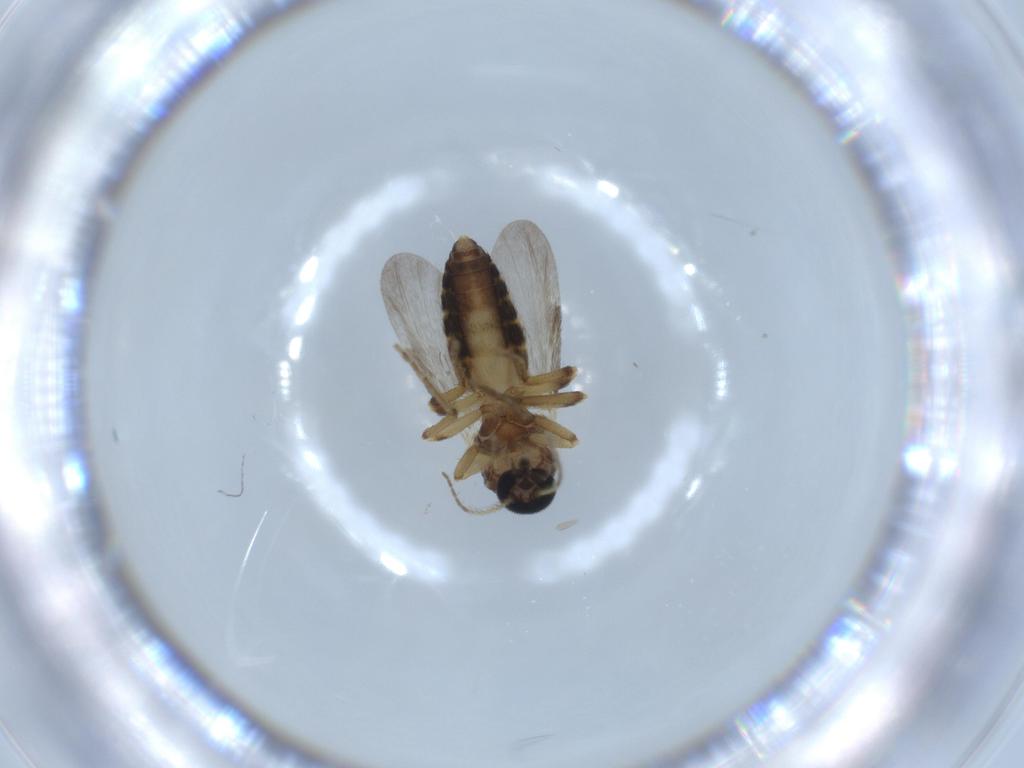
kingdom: Animalia
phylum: Arthropoda
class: Insecta
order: Diptera
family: Ceratopogonidae
